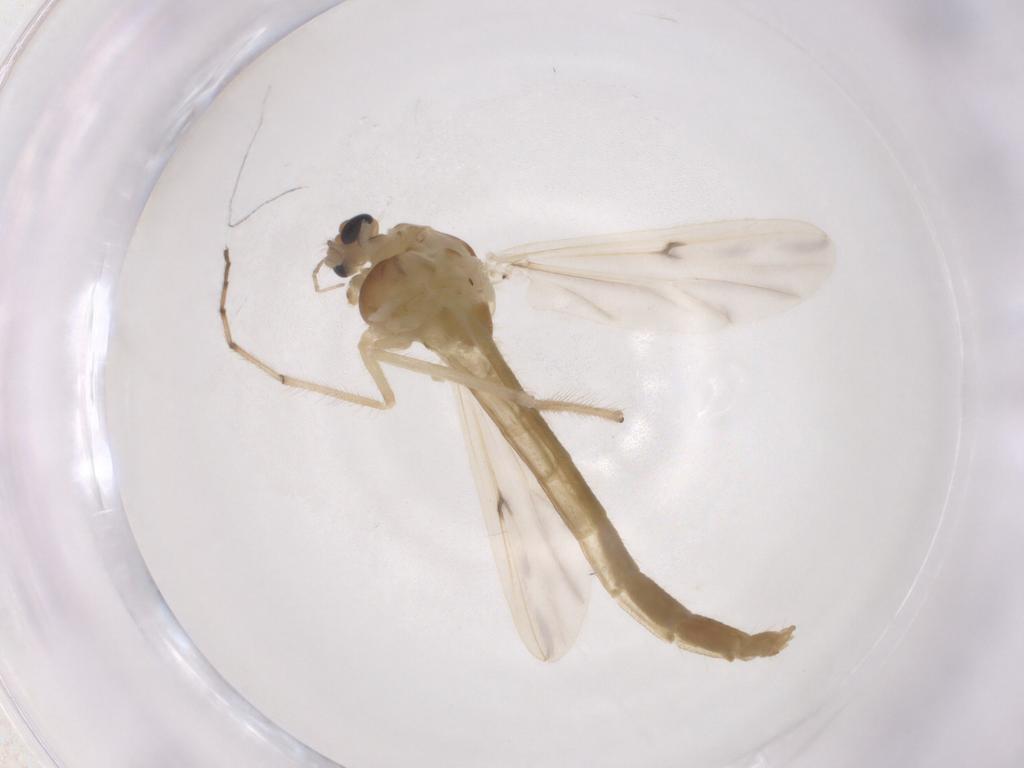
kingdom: Animalia
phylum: Arthropoda
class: Insecta
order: Diptera
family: Chironomidae
